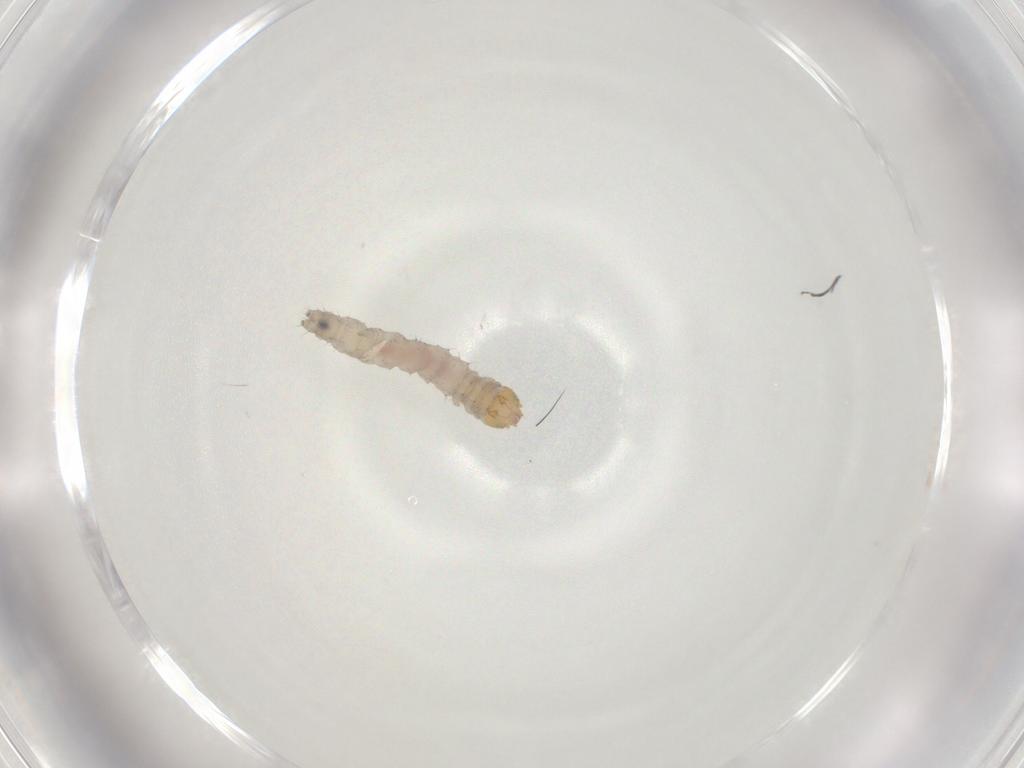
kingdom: Animalia
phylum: Arthropoda
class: Insecta
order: Lepidoptera
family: Erebidae
